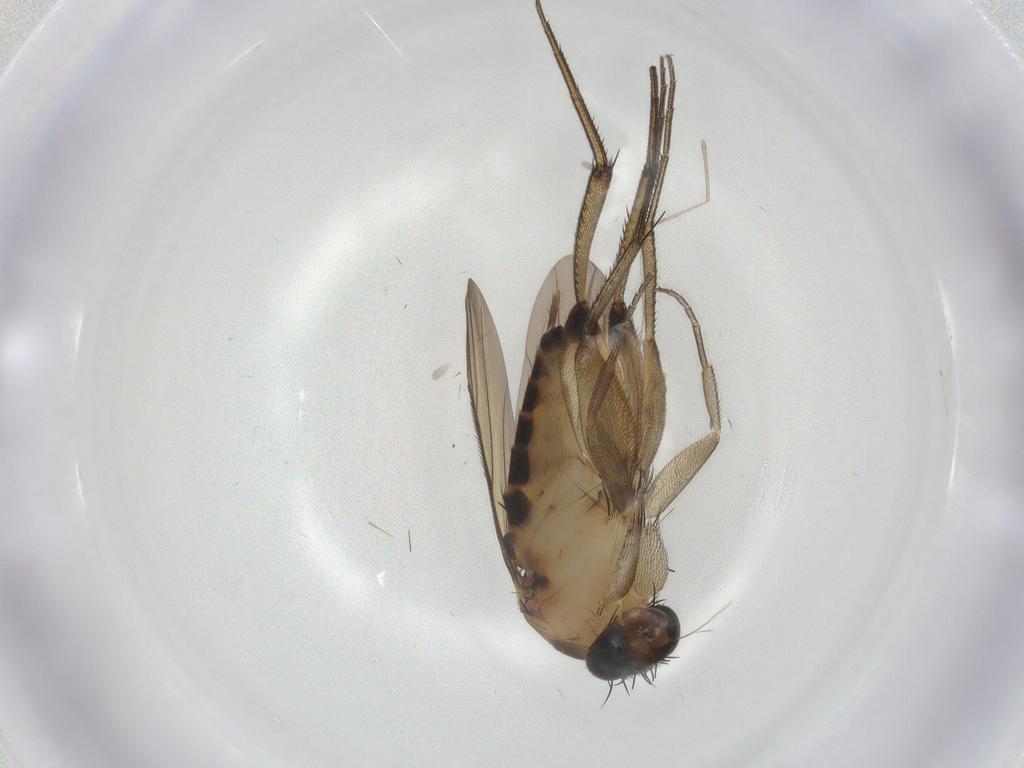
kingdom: Animalia
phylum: Arthropoda
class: Insecta
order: Diptera
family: Phoridae
